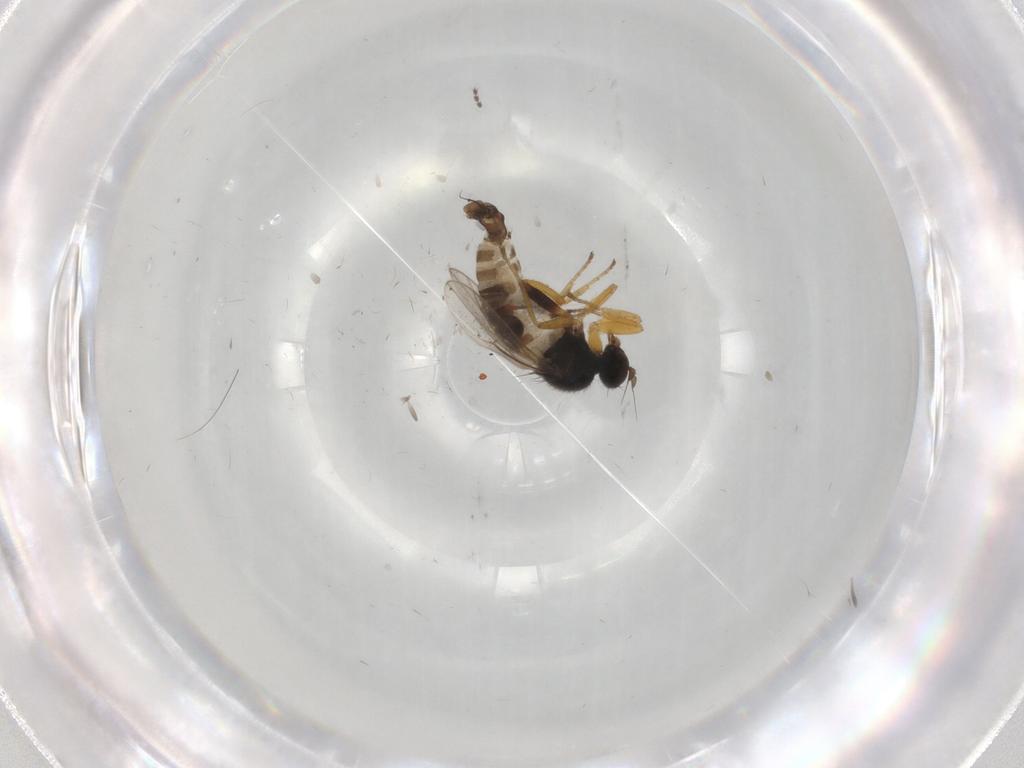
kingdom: Animalia
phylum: Arthropoda
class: Insecta
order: Diptera
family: Hybotidae
